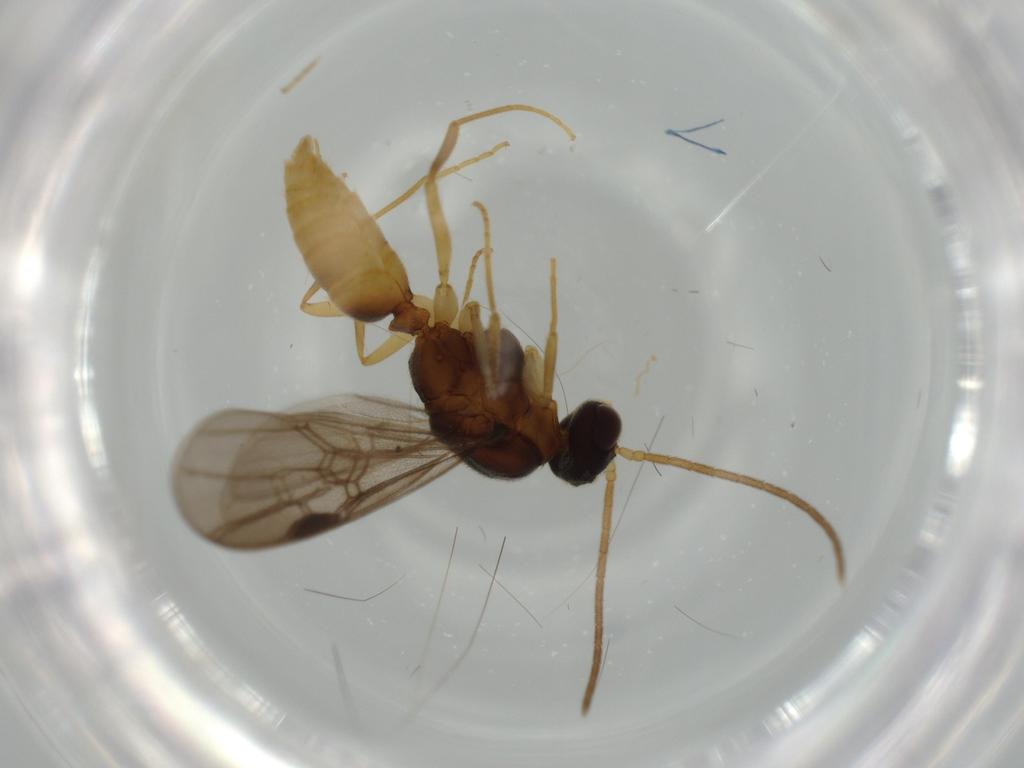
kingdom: Animalia
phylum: Arthropoda
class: Insecta
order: Hymenoptera
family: Formicidae
